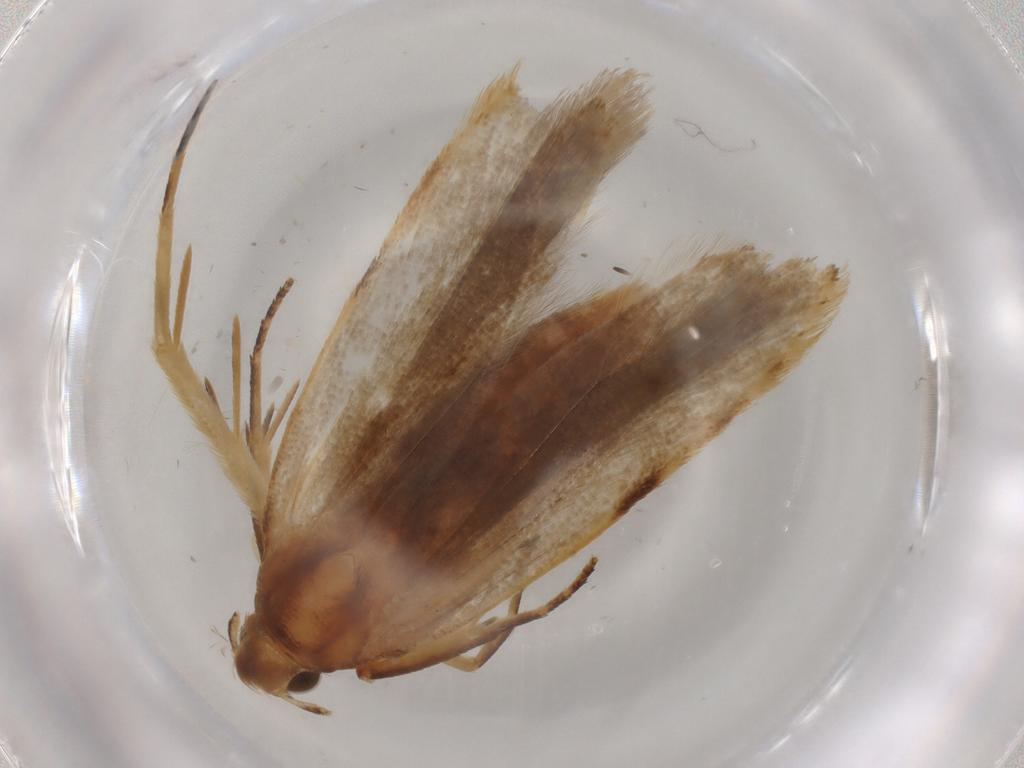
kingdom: Animalia
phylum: Arthropoda
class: Insecta
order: Lepidoptera
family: Geometridae
